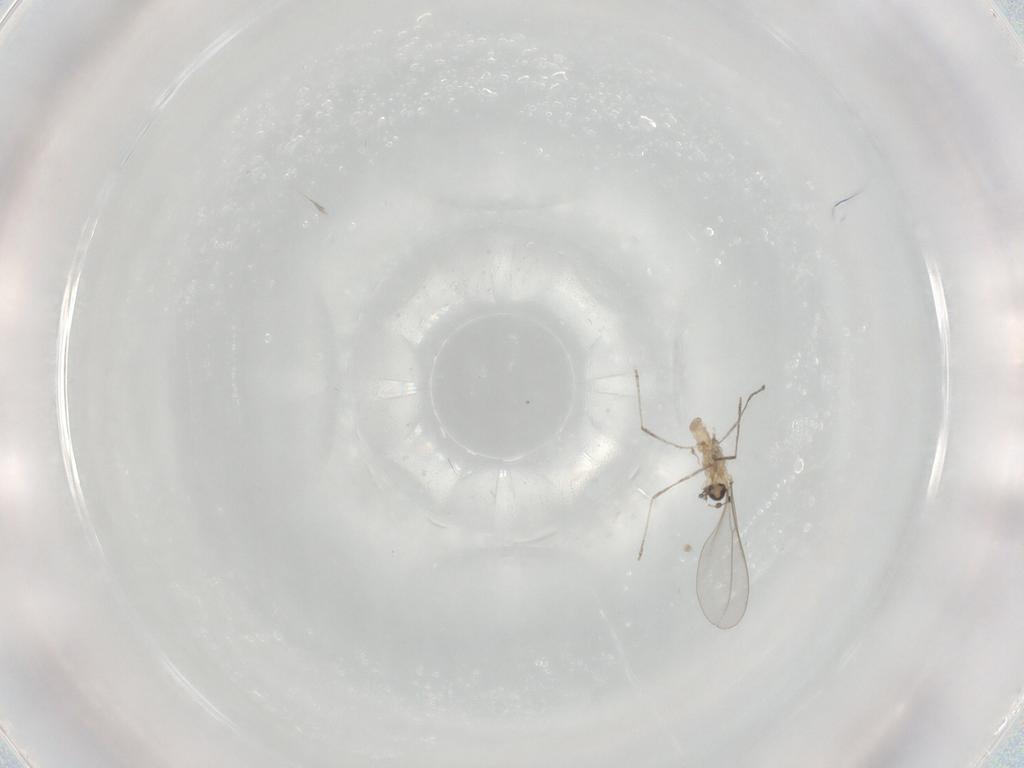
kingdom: Animalia
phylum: Arthropoda
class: Insecta
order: Diptera
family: Cecidomyiidae
